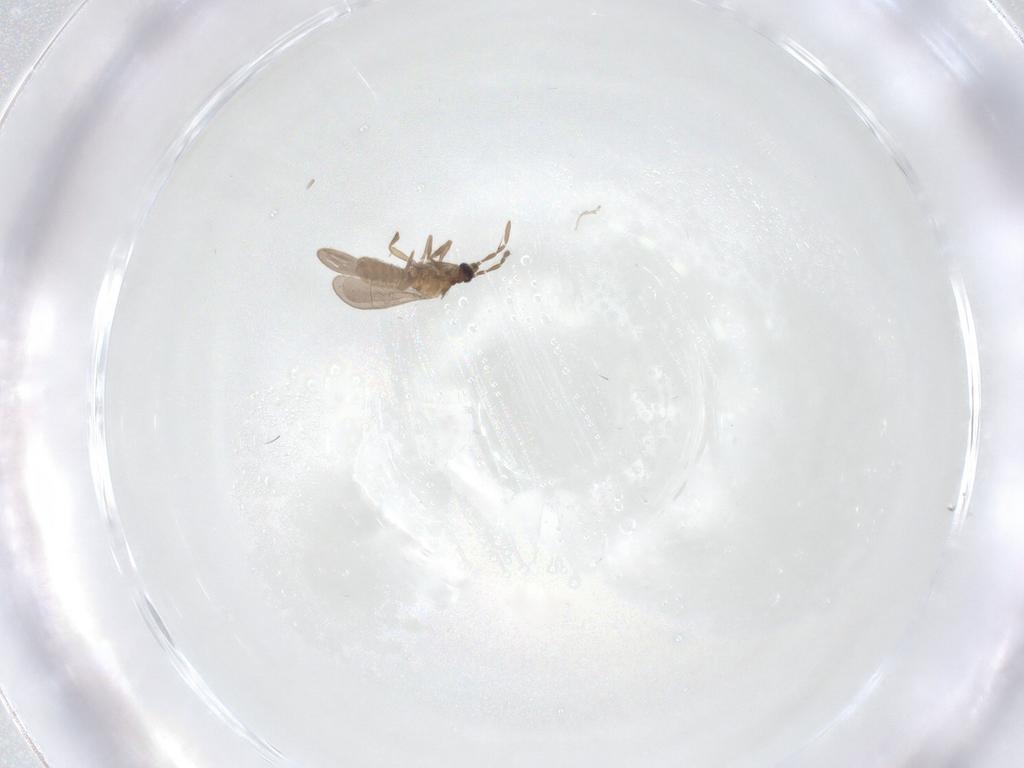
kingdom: Animalia
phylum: Arthropoda
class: Insecta
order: Hemiptera
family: Enicocephalidae
